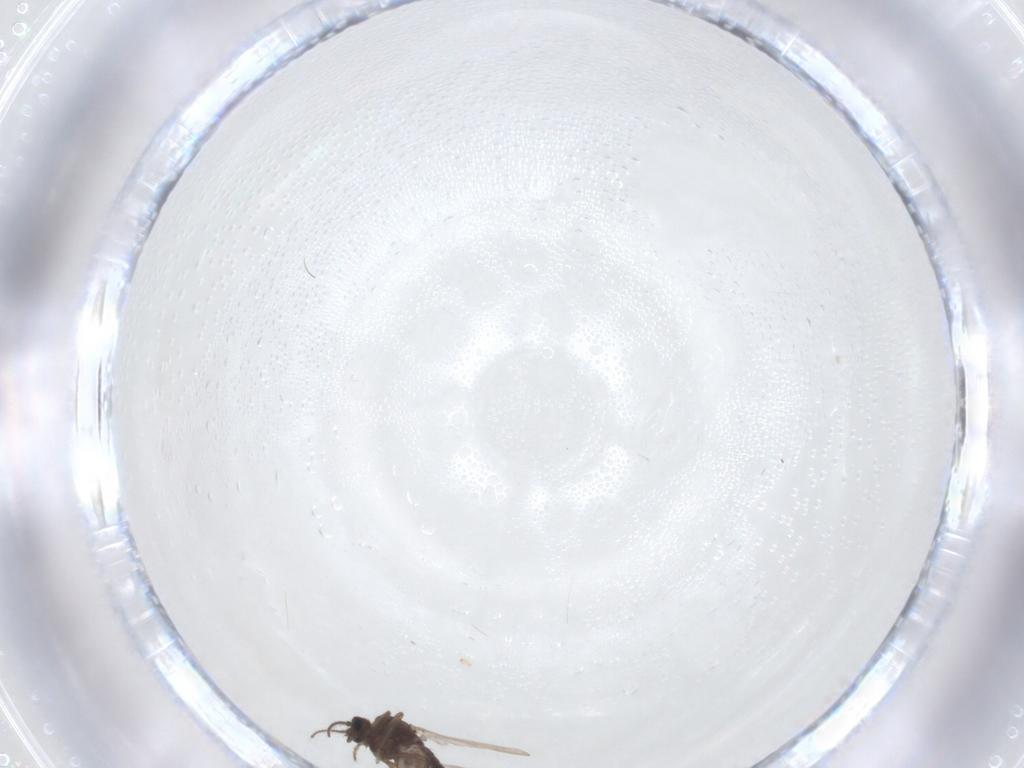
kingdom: Animalia
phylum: Arthropoda
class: Insecta
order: Diptera
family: Ceratopogonidae
